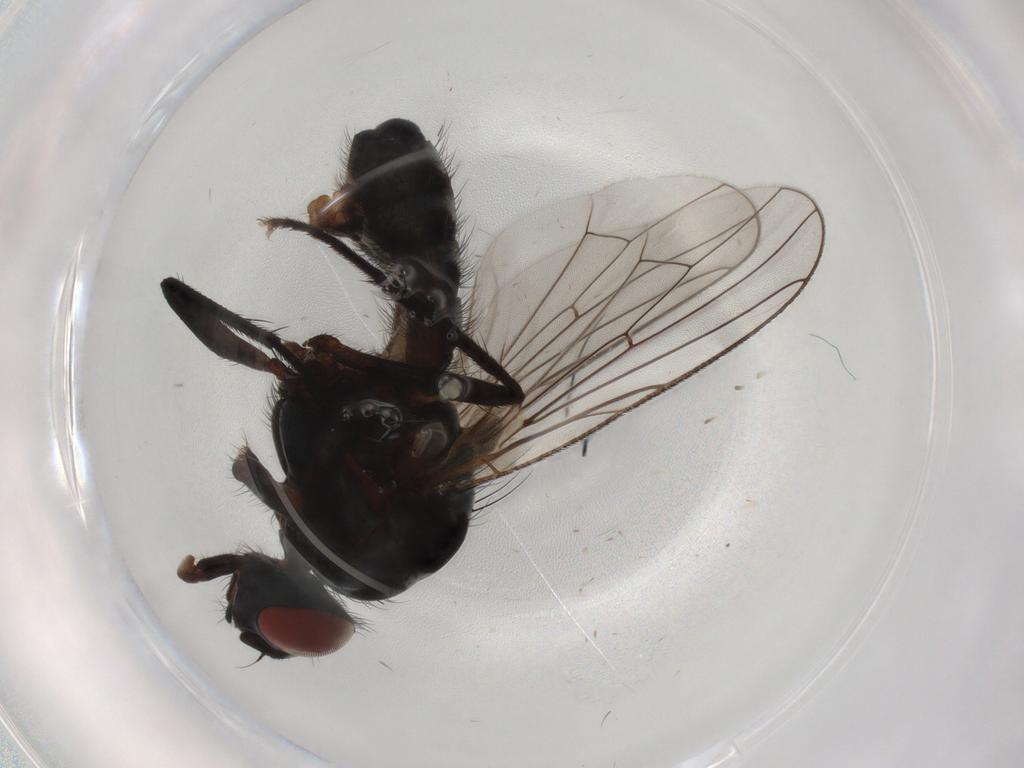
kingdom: Animalia
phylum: Arthropoda
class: Insecta
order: Diptera
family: Anthomyiidae
